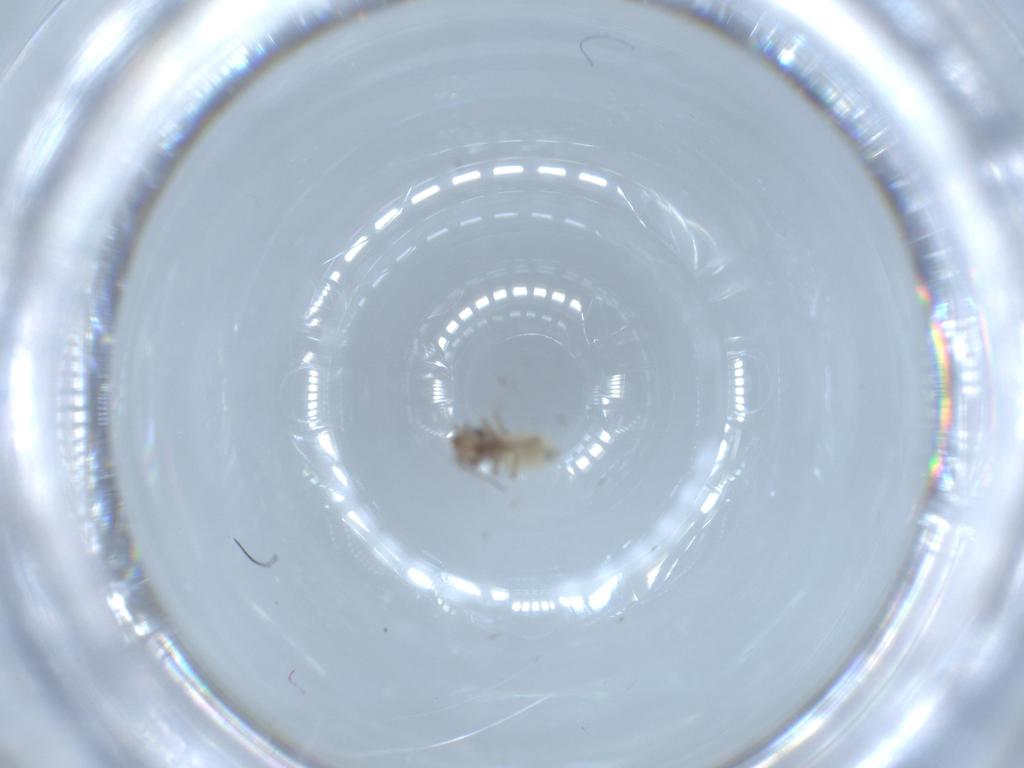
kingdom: Animalia
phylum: Arthropoda
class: Insecta
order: Psocodea
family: Lepidopsocidae
